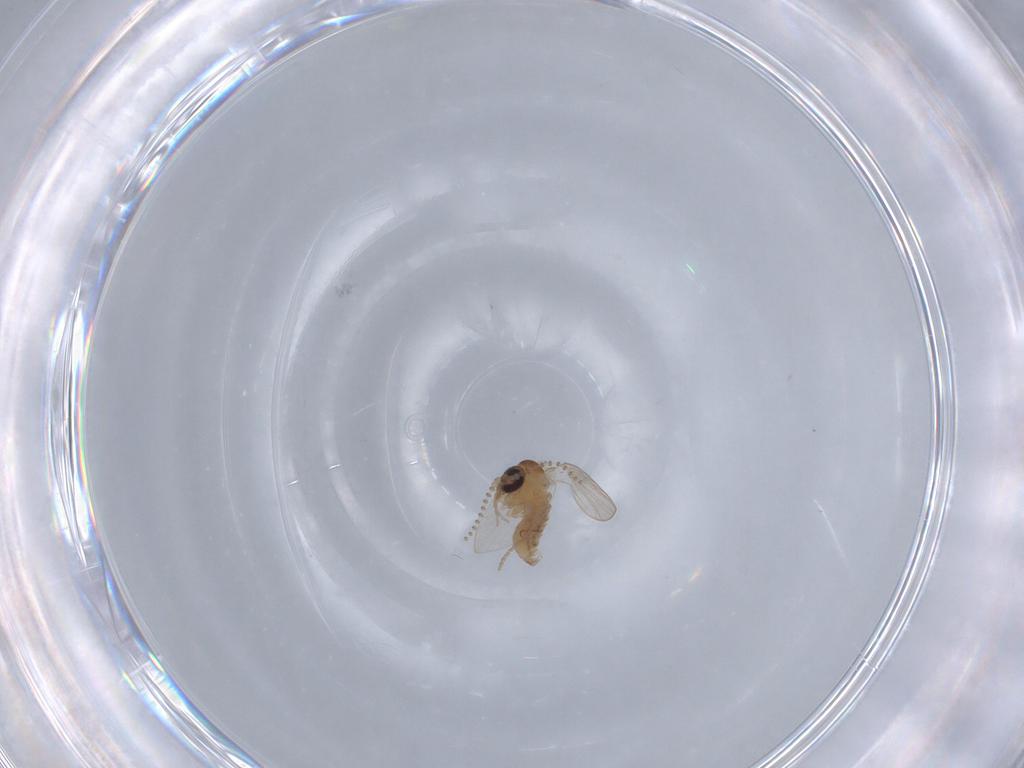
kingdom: Animalia
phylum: Arthropoda
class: Insecta
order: Diptera
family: Psychodidae
